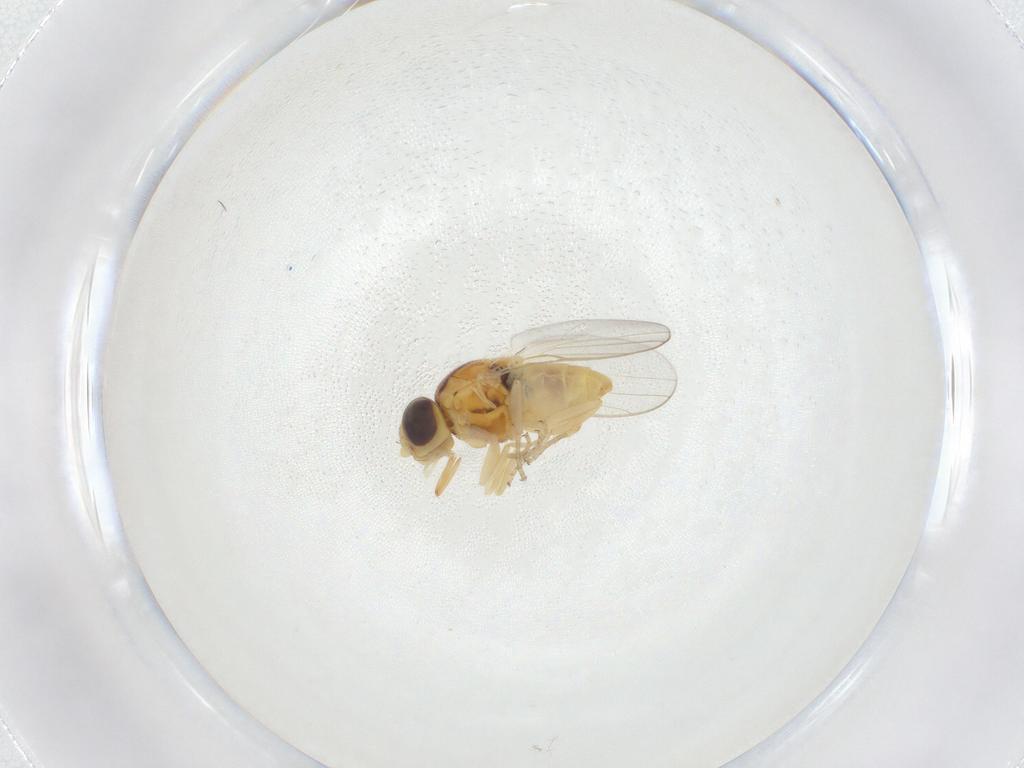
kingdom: Animalia
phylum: Arthropoda
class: Insecta
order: Diptera
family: Chloropidae
